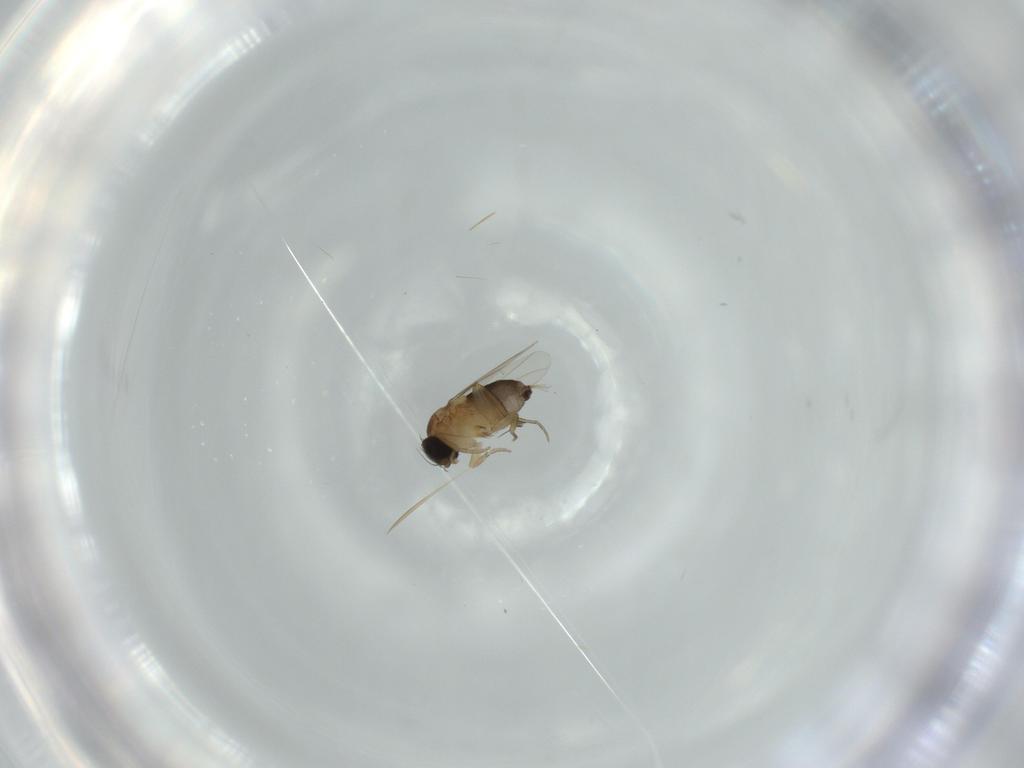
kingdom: Animalia
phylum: Arthropoda
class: Insecta
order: Diptera
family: Phoridae
